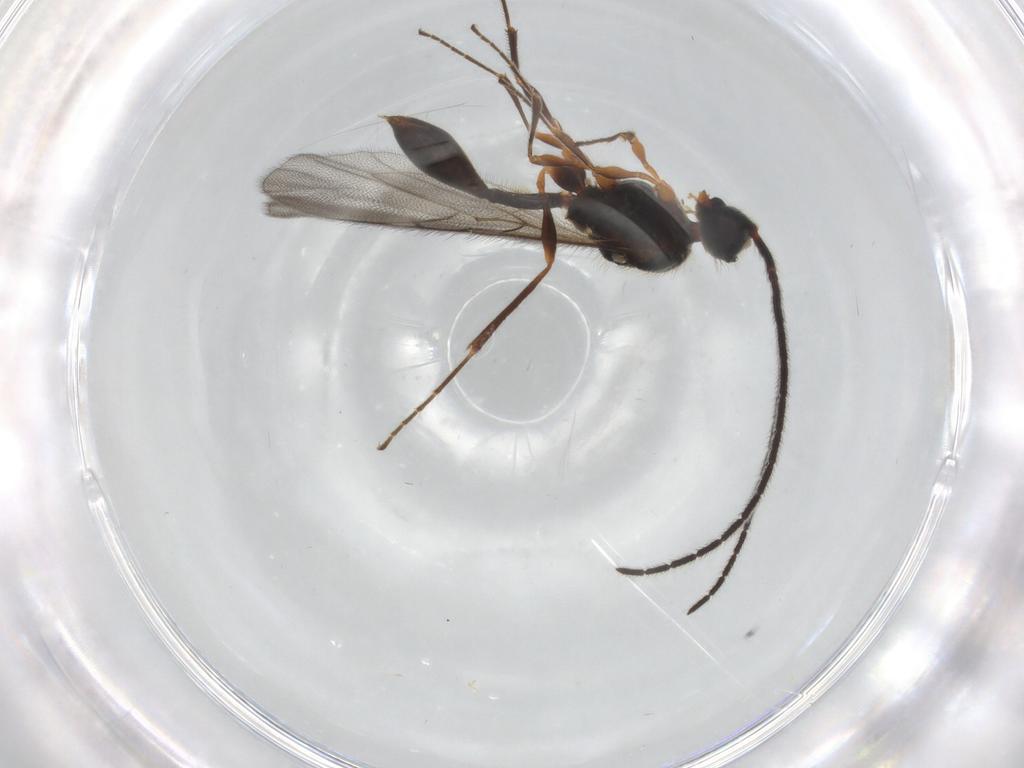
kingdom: Animalia
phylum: Arthropoda
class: Insecta
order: Hymenoptera
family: Diapriidae
